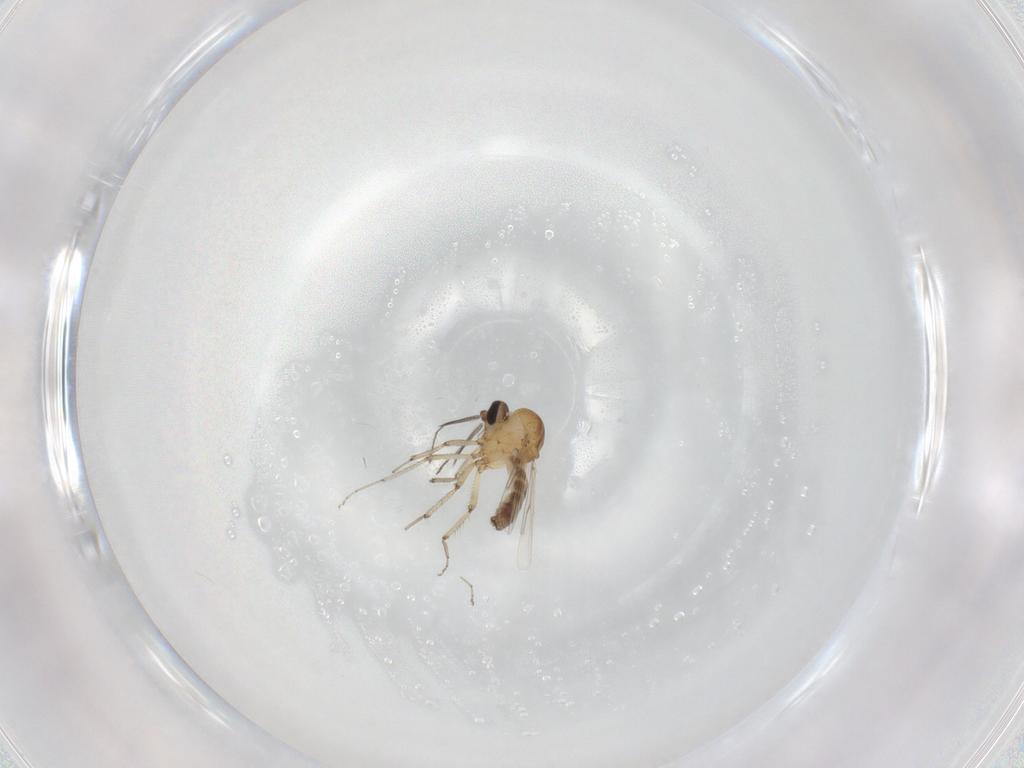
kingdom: Animalia
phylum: Arthropoda
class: Insecta
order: Diptera
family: Ceratopogonidae
